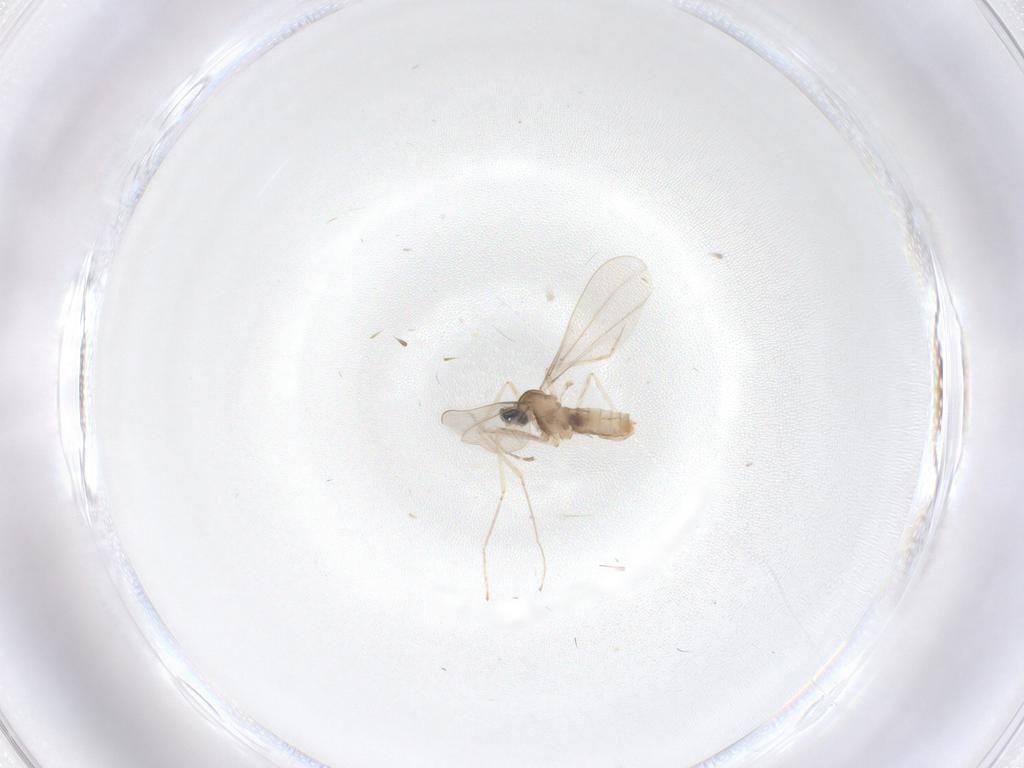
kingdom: Animalia
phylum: Arthropoda
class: Insecta
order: Diptera
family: Cecidomyiidae
